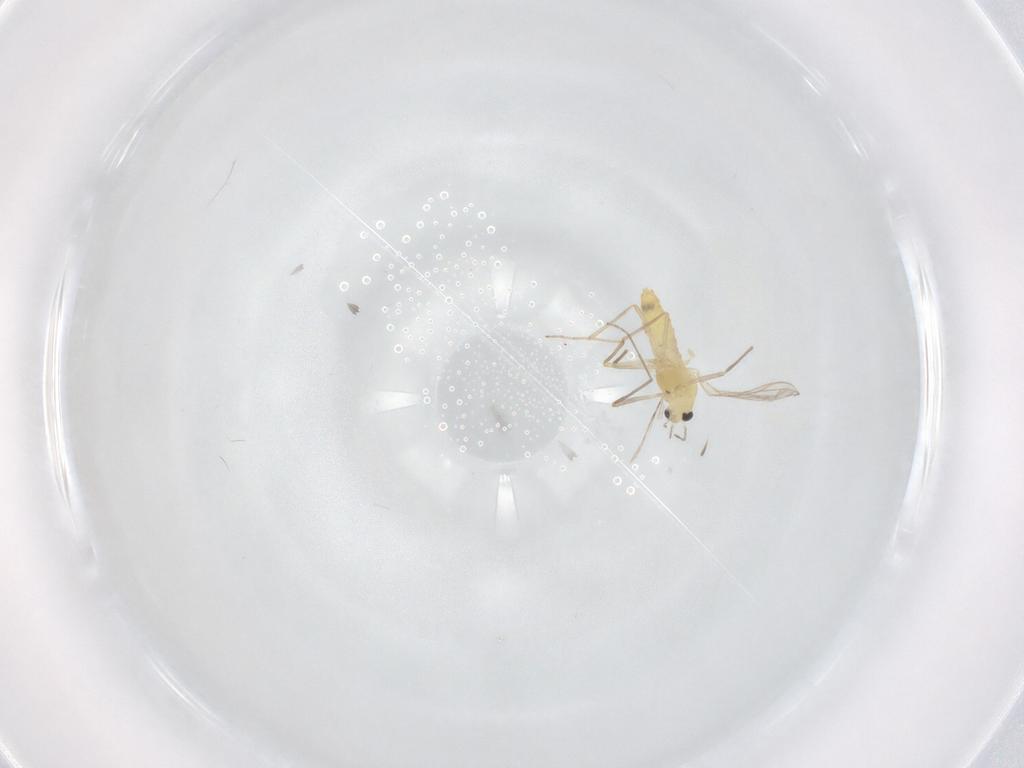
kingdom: Animalia
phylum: Arthropoda
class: Insecta
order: Diptera
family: Chironomidae
